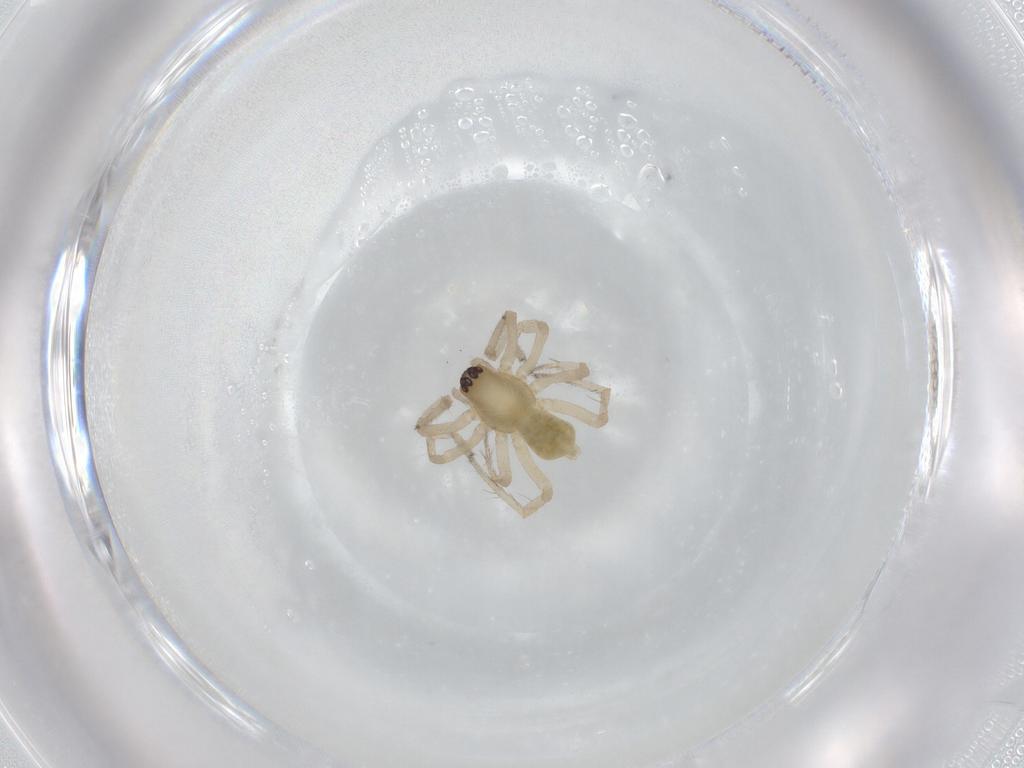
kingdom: Animalia
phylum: Arthropoda
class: Arachnida
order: Araneae
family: Anyphaenidae
